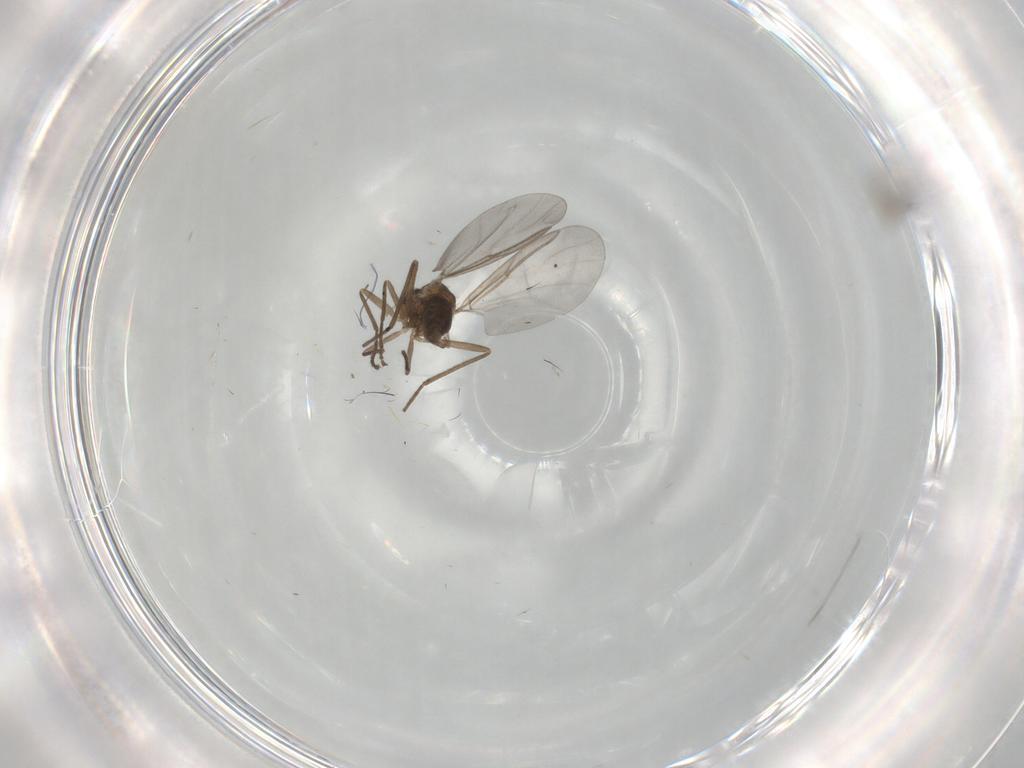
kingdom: Animalia
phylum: Arthropoda
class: Insecta
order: Diptera
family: Cecidomyiidae
